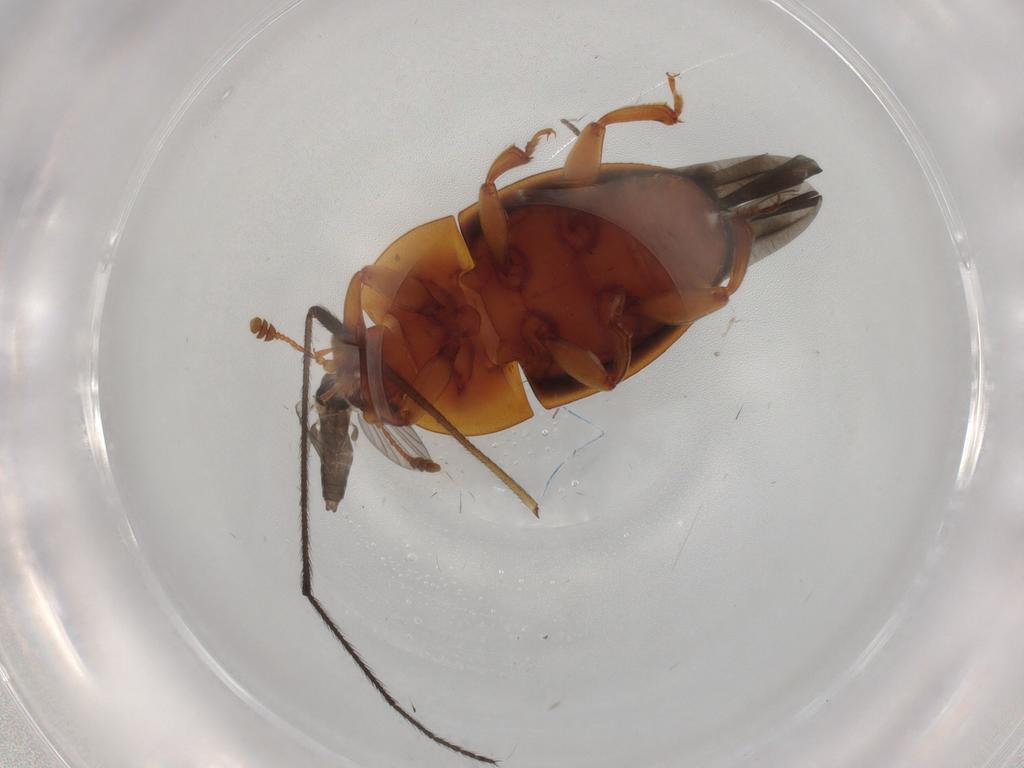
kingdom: Animalia
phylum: Arthropoda
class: Insecta
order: Diptera
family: Limoniidae
